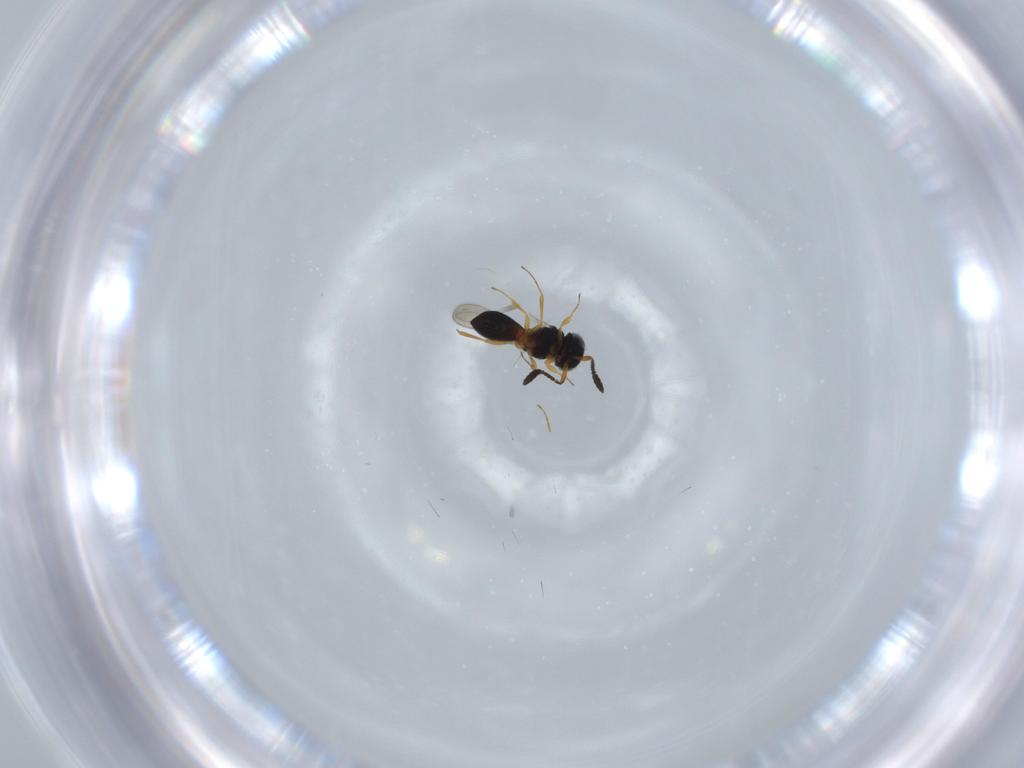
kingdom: Animalia
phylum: Arthropoda
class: Insecta
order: Hymenoptera
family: Scelionidae
